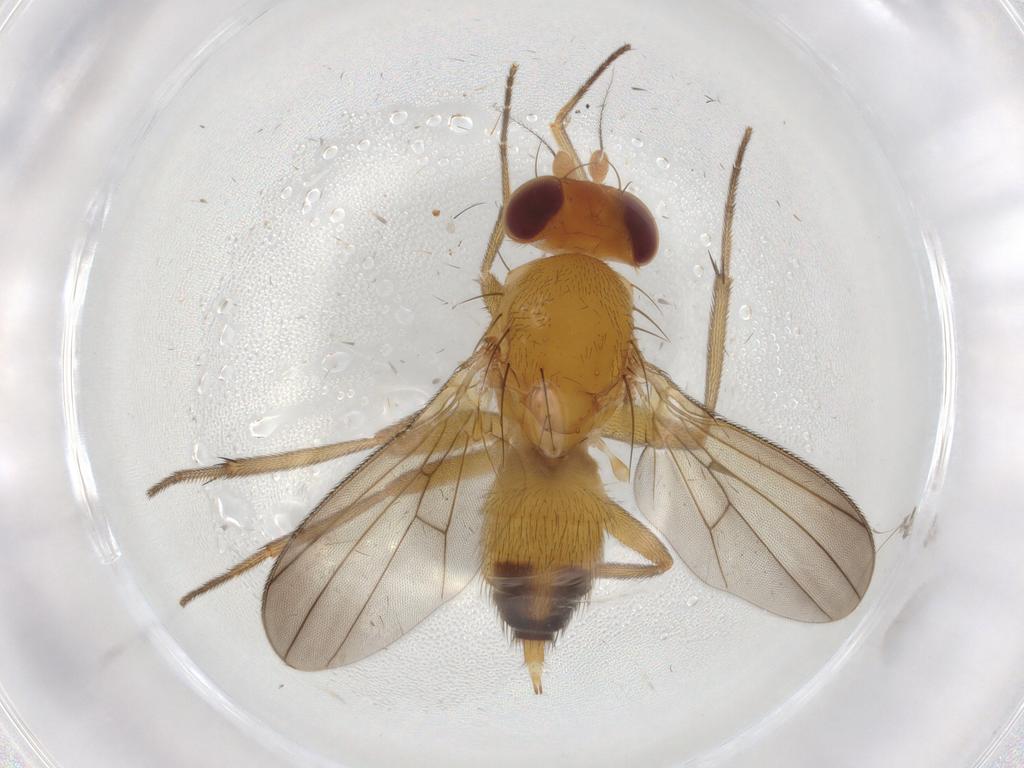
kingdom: Animalia
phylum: Arthropoda
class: Insecta
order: Diptera
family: Clusiidae
